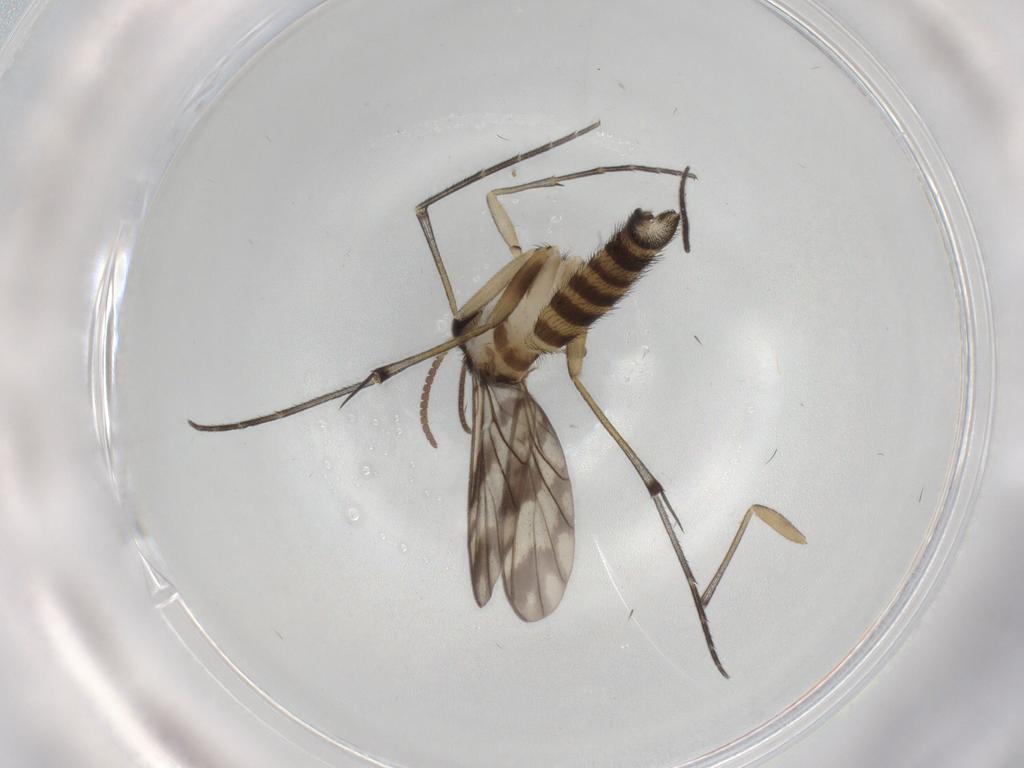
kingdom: Animalia
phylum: Arthropoda
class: Insecta
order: Diptera
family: Keroplatidae
